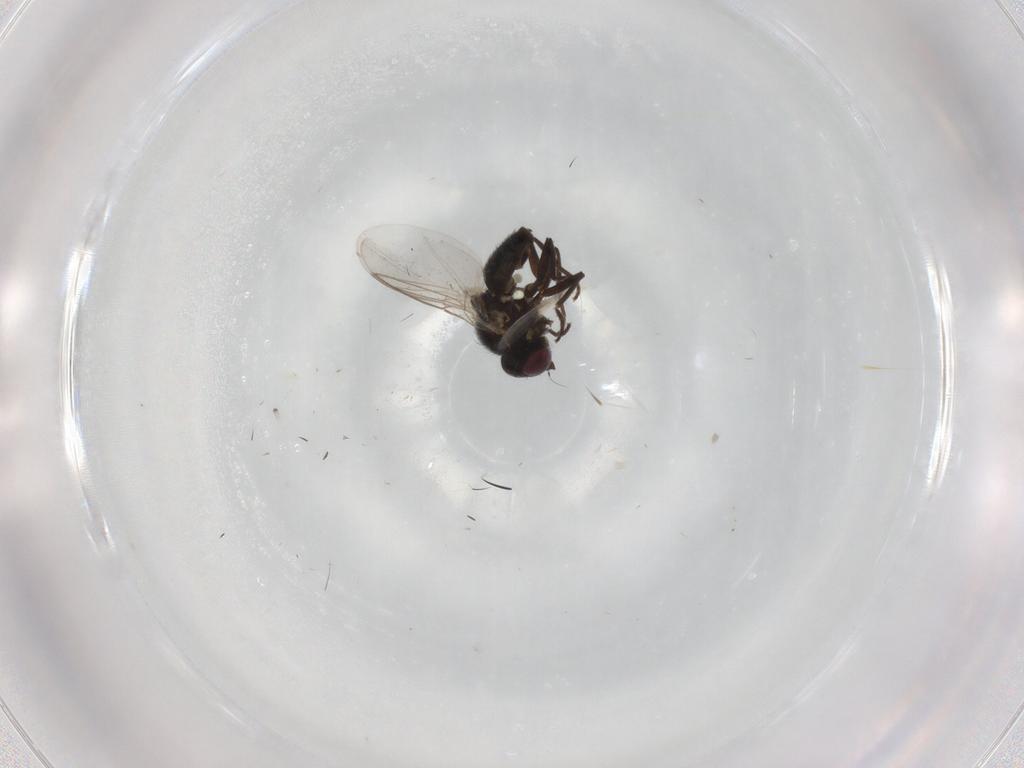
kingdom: Animalia
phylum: Arthropoda
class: Insecta
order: Diptera
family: Agromyzidae
